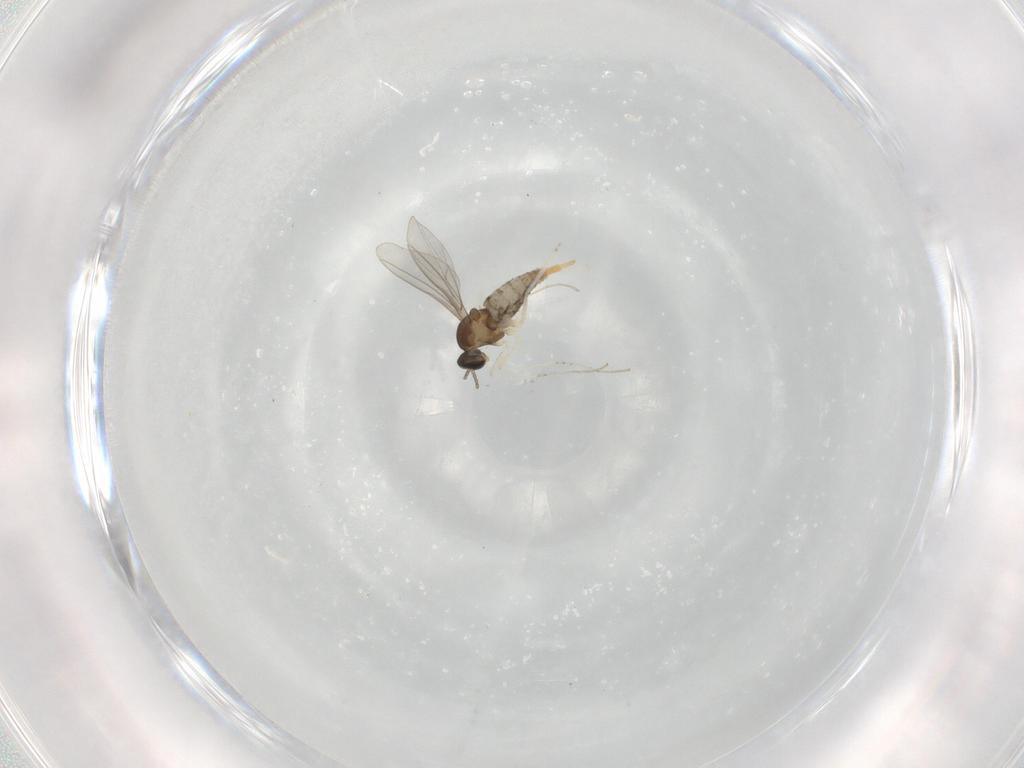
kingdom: Animalia
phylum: Arthropoda
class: Insecta
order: Diptera
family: Cecidomyiidae
